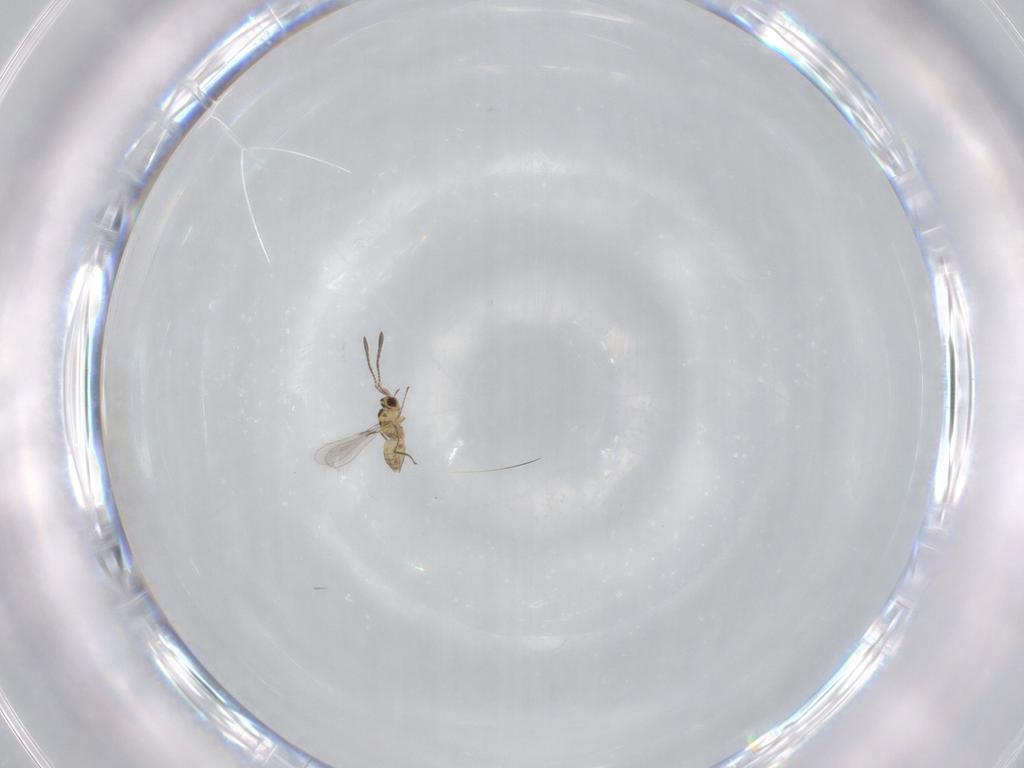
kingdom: Animalia
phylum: Arthropoda
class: Insecta
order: Hymenoptera
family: Mymaridae
